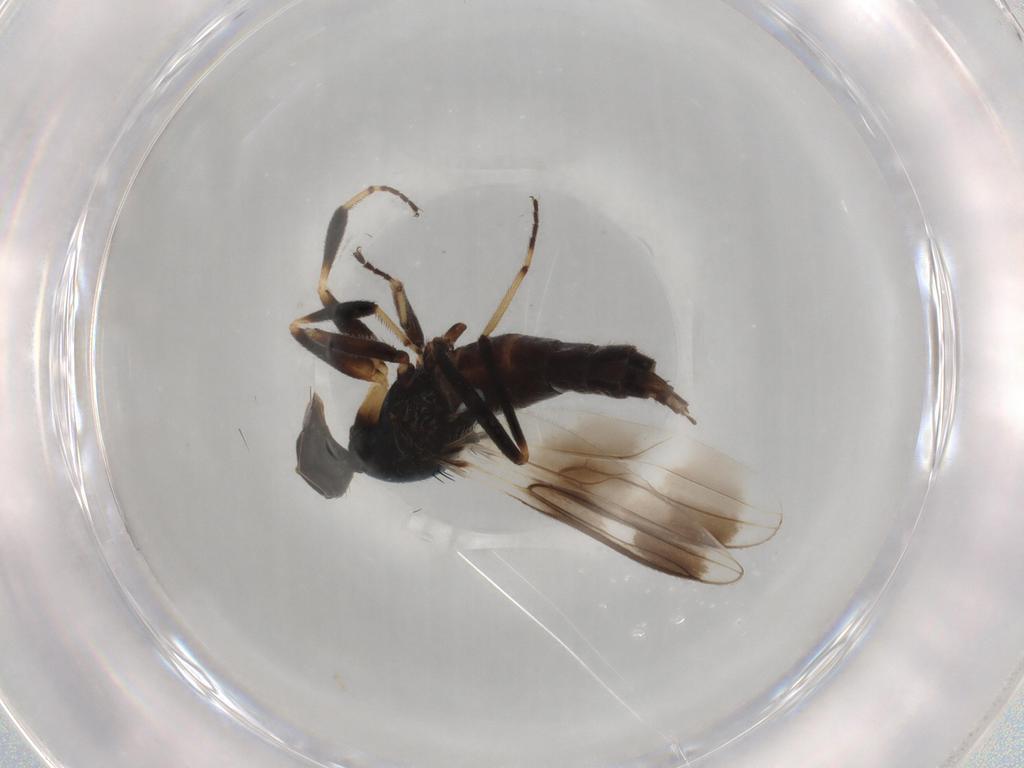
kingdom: Animalia
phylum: Arthropoda
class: Insecta
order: Diptera
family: Hybotidae
